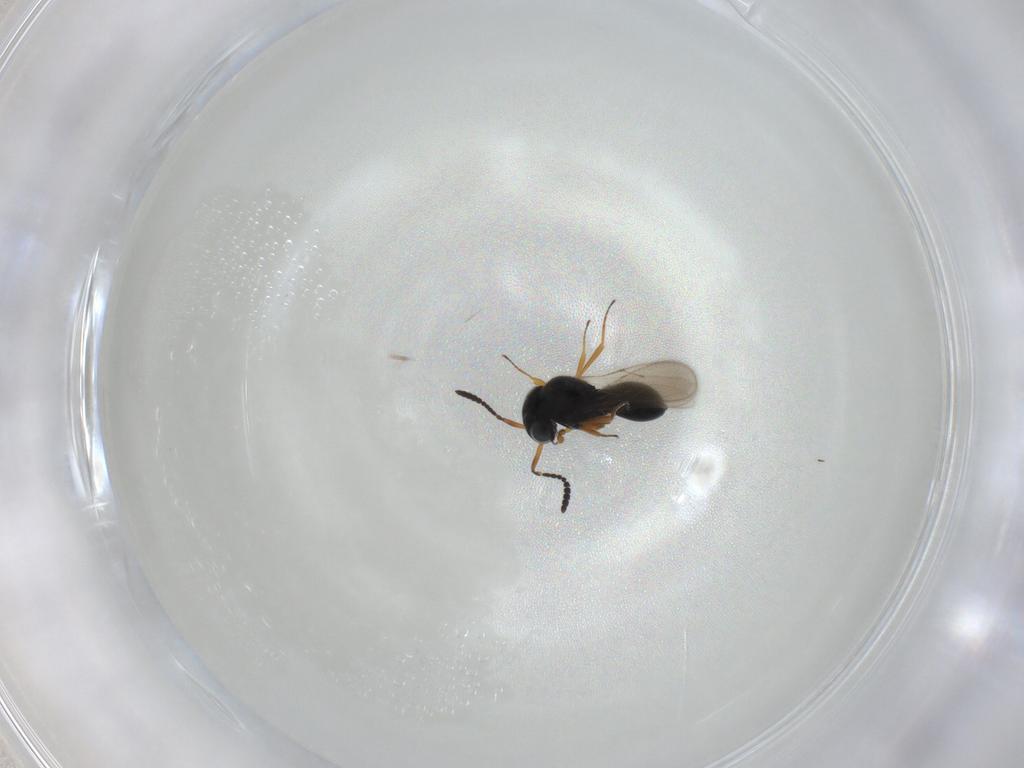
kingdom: Animalia
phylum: Arthropoda
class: Insecta
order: Hymenoptera
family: Scelionidae
